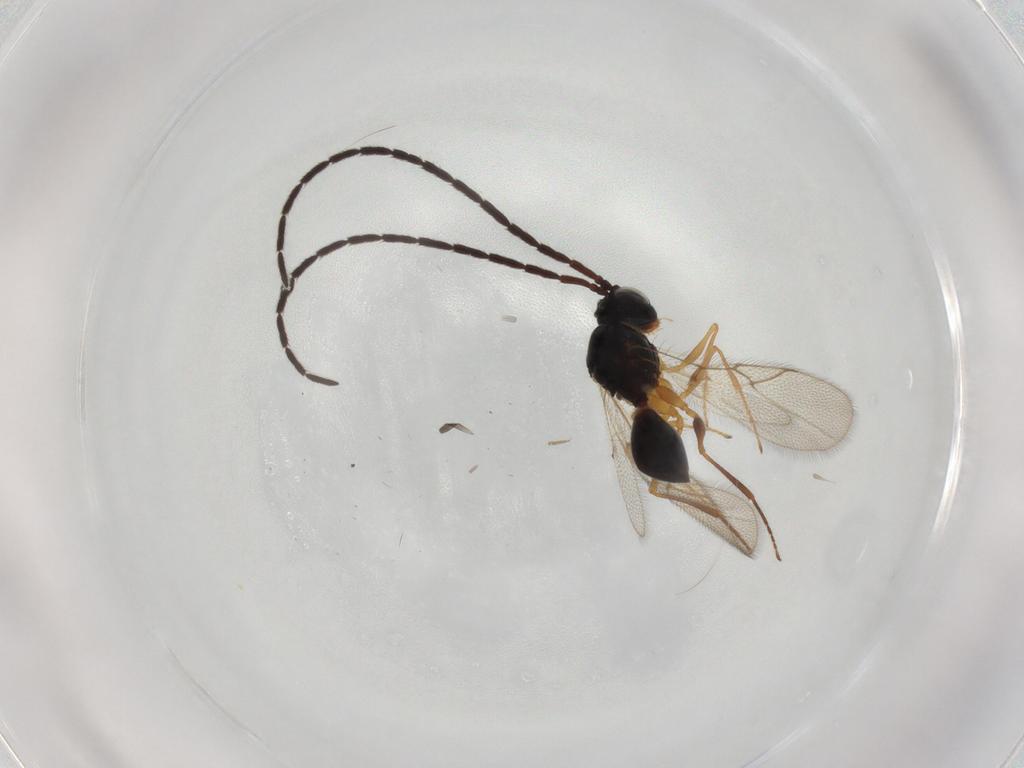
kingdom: Animalia
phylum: Arthropoda
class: Insecta
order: Hymenoptera
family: Figitidae
